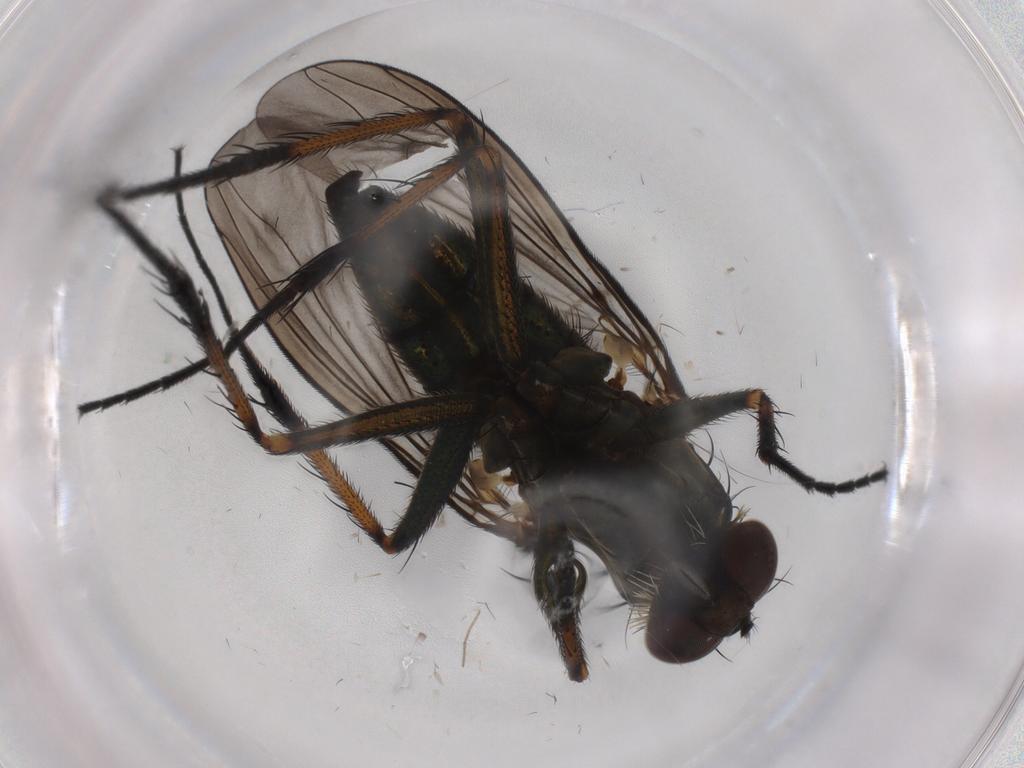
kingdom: Animalia
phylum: Arthropoda
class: Insecta
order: Diptera
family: Dolichopodidae
